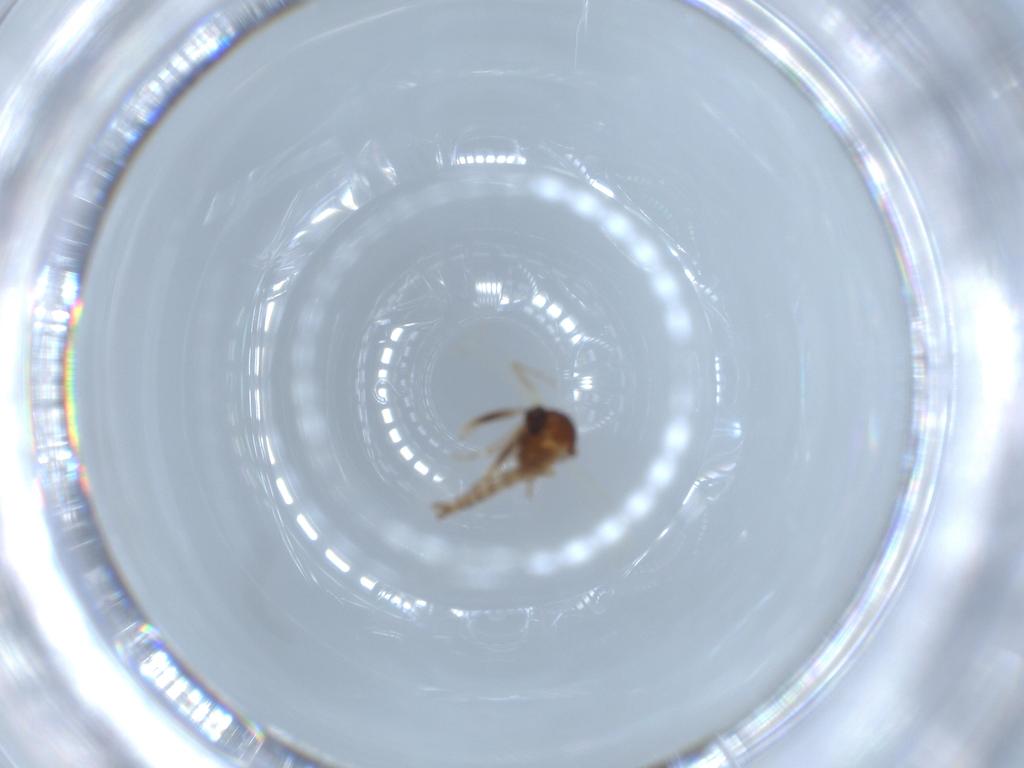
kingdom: Animalia
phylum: Arthropoda
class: Insecta
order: Diptera
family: Ceratopogonidae
